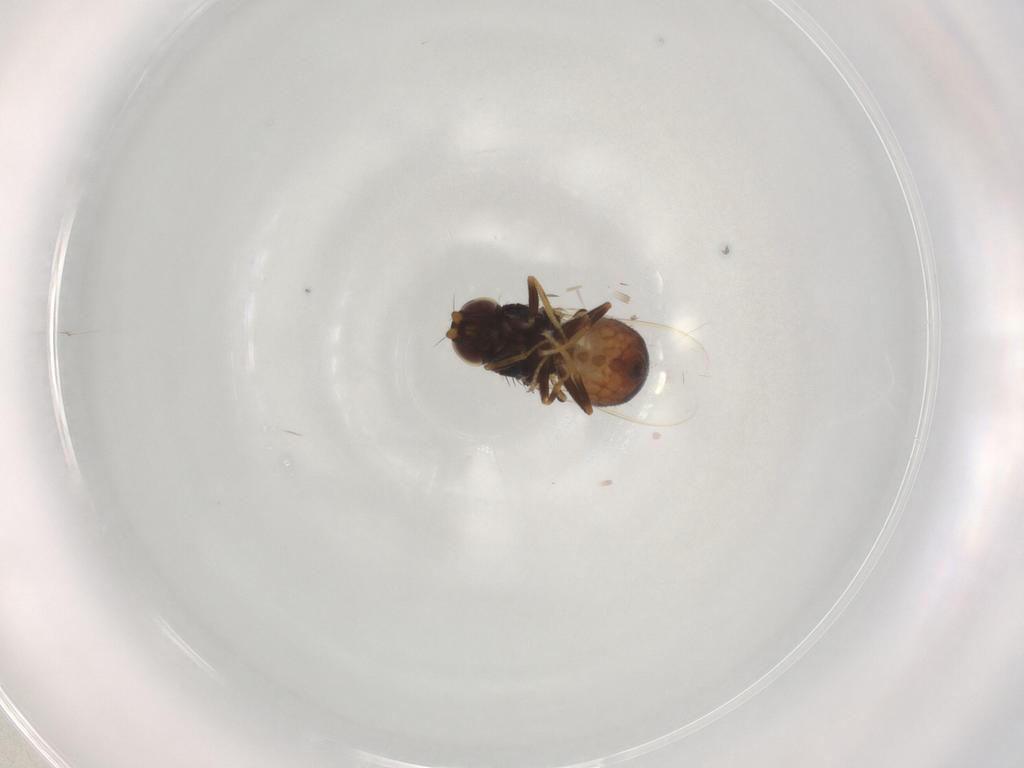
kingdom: Animalia
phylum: Arthropoda
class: Insecta
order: Diptera
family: Chloropidae
